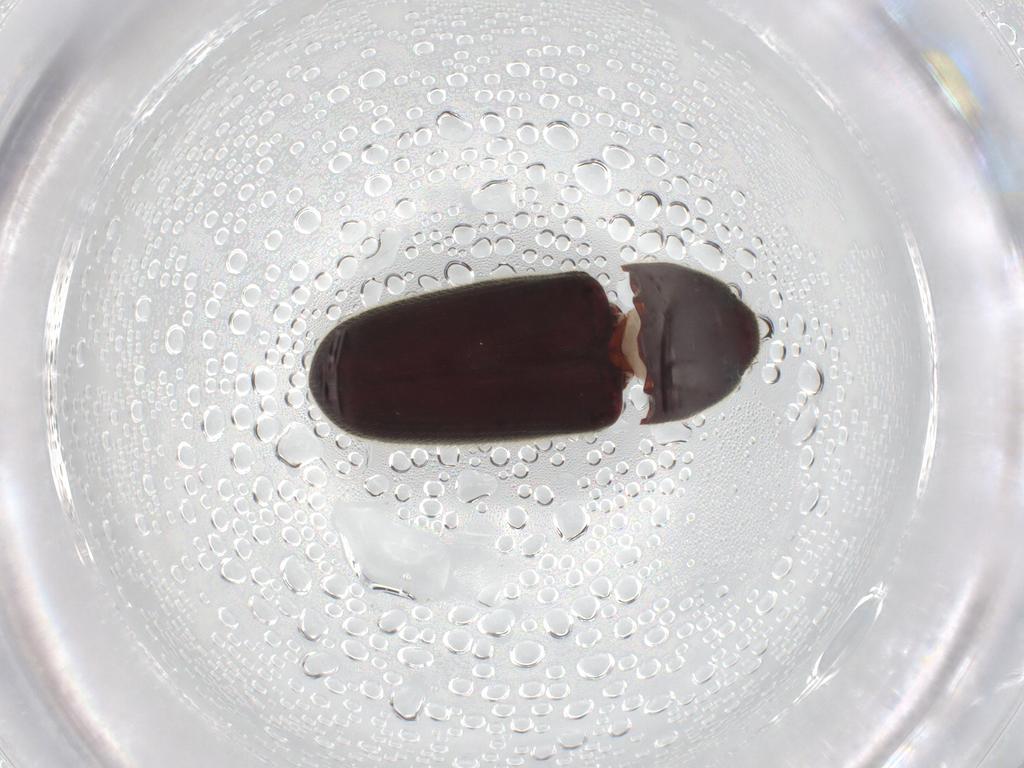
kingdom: Animalia
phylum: Arthropoda
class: Insecta
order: Coleoptera
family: Throscidae
